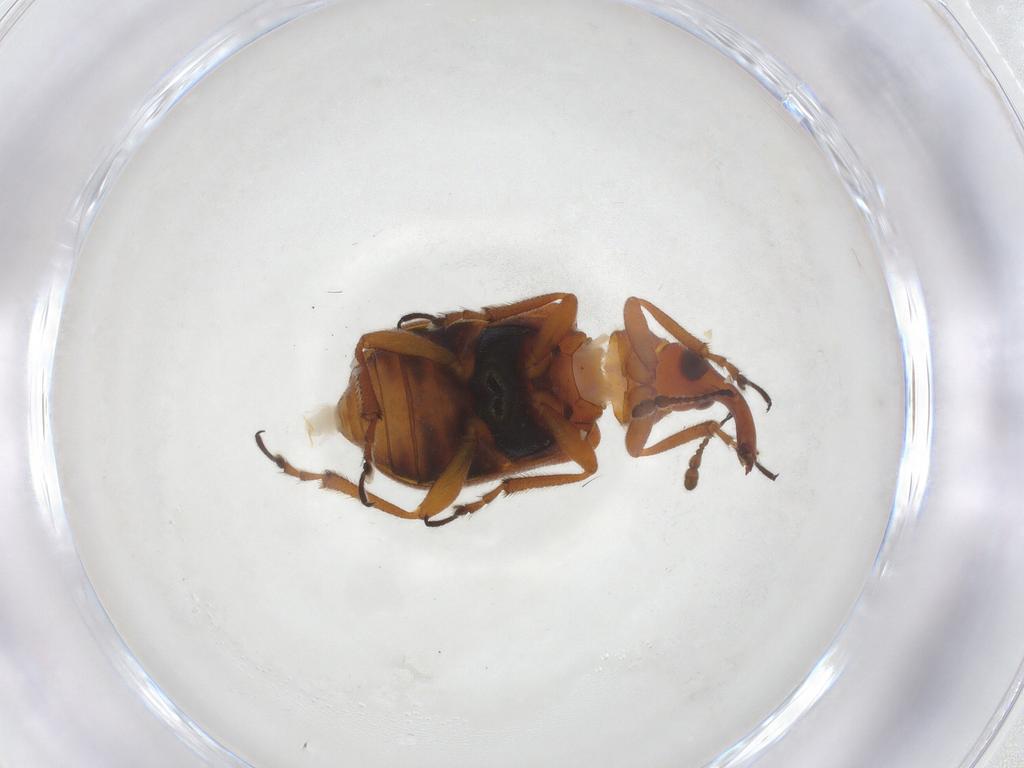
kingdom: Animalia
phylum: Arthropoda
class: Insecta
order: Coleoptera
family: Attelabidae
